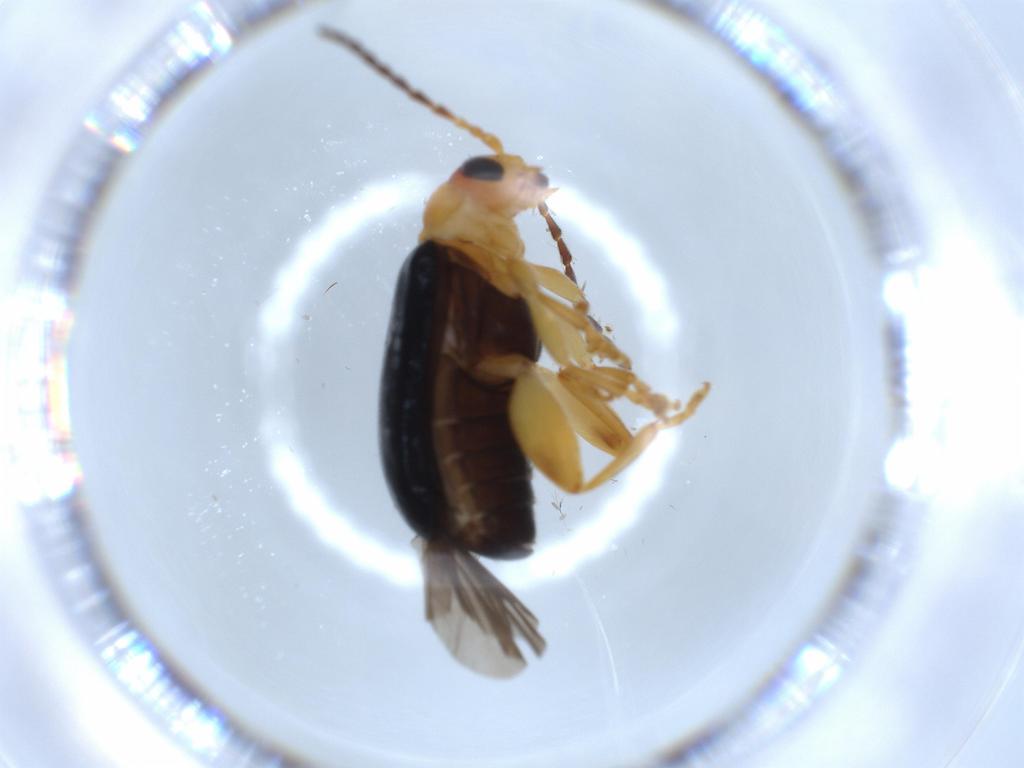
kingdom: Animalia
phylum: Arthropoda
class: Insecta
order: Coleoptera
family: Chrysomelidae
